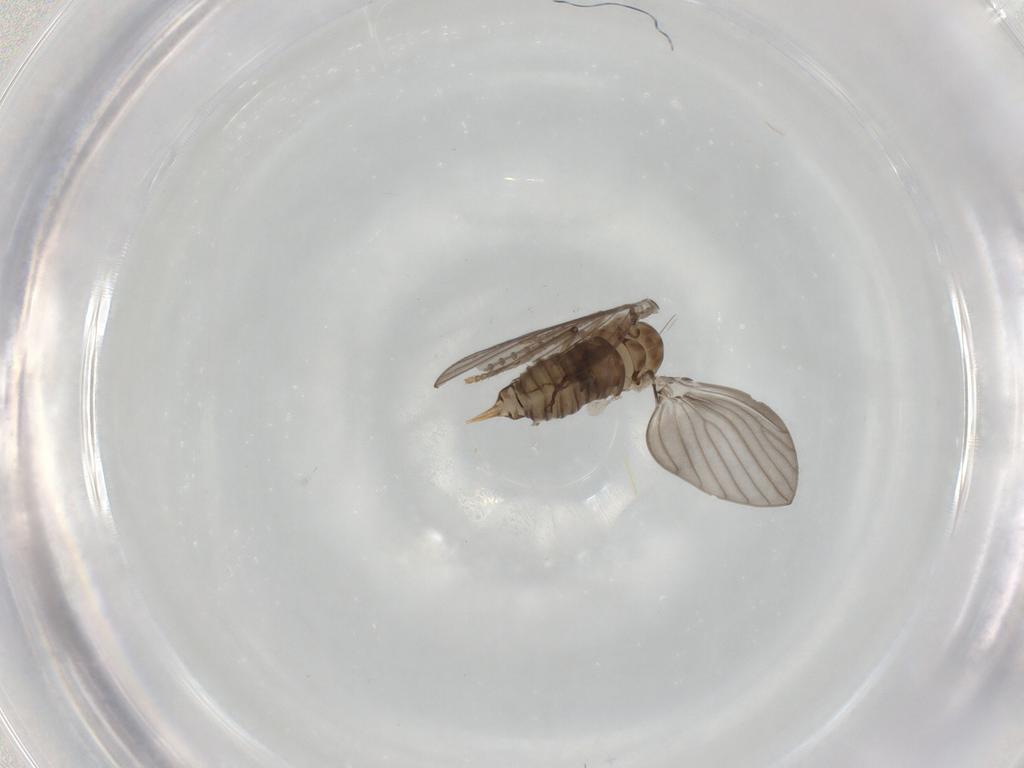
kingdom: Animalia
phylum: Arthropoda
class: Insecta
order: Diptera
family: Psychodidae
